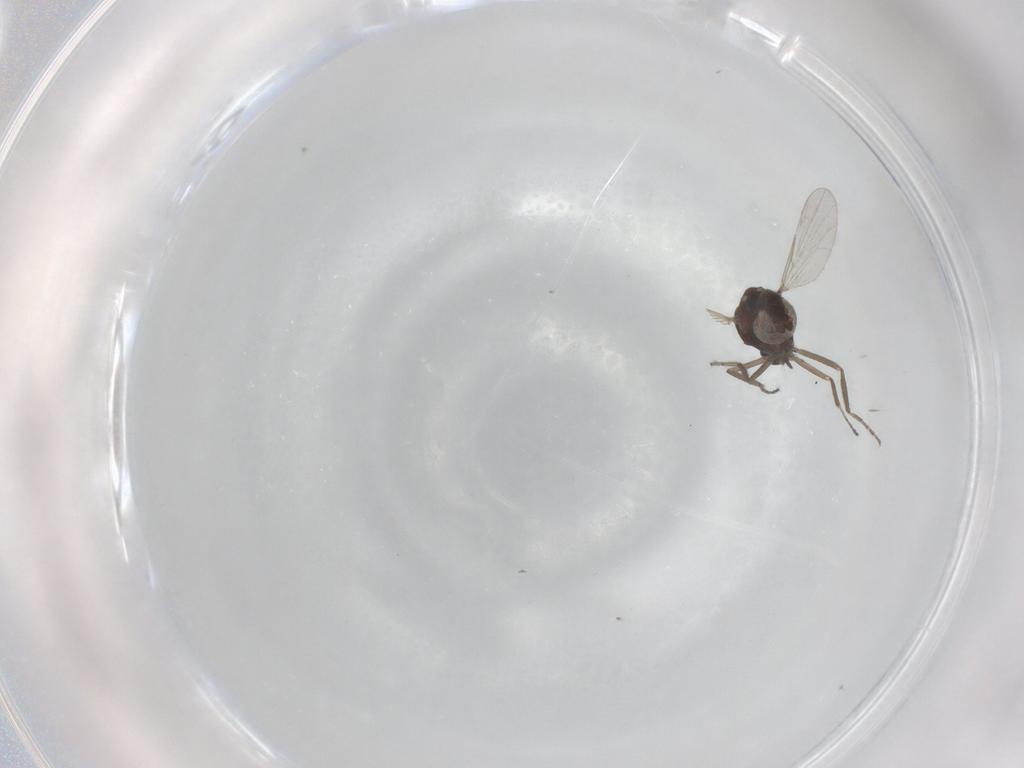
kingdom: Animalia
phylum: Arthropoda
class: Insecta
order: Diptera
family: Ceratopogonidae
